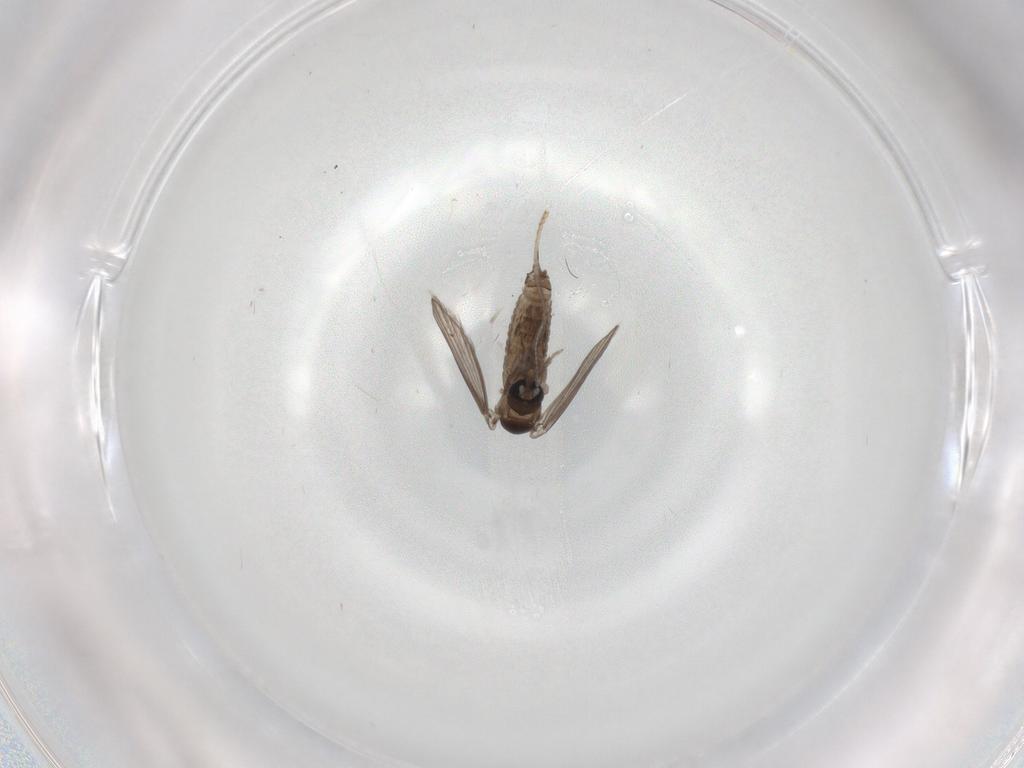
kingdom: Animalia
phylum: Arthropoda
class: Insecta
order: Diptera
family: Psychodidae
